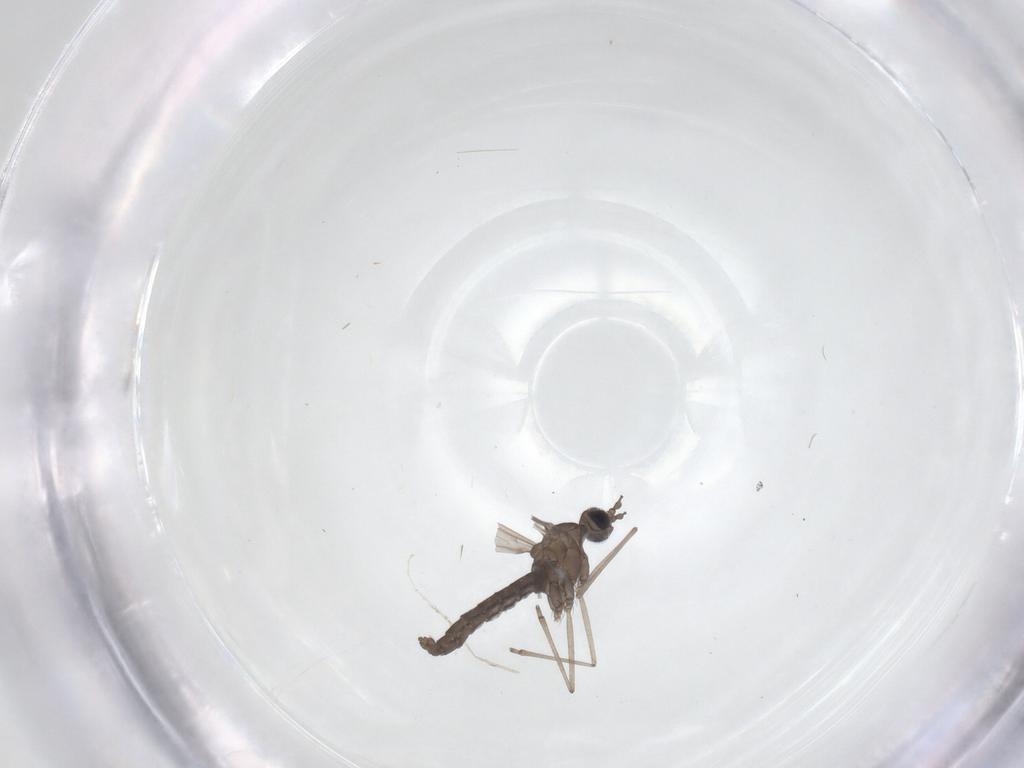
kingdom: Animalia
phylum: Arthropoda
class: Insecta
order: Diptera
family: Cecidomyiidae
